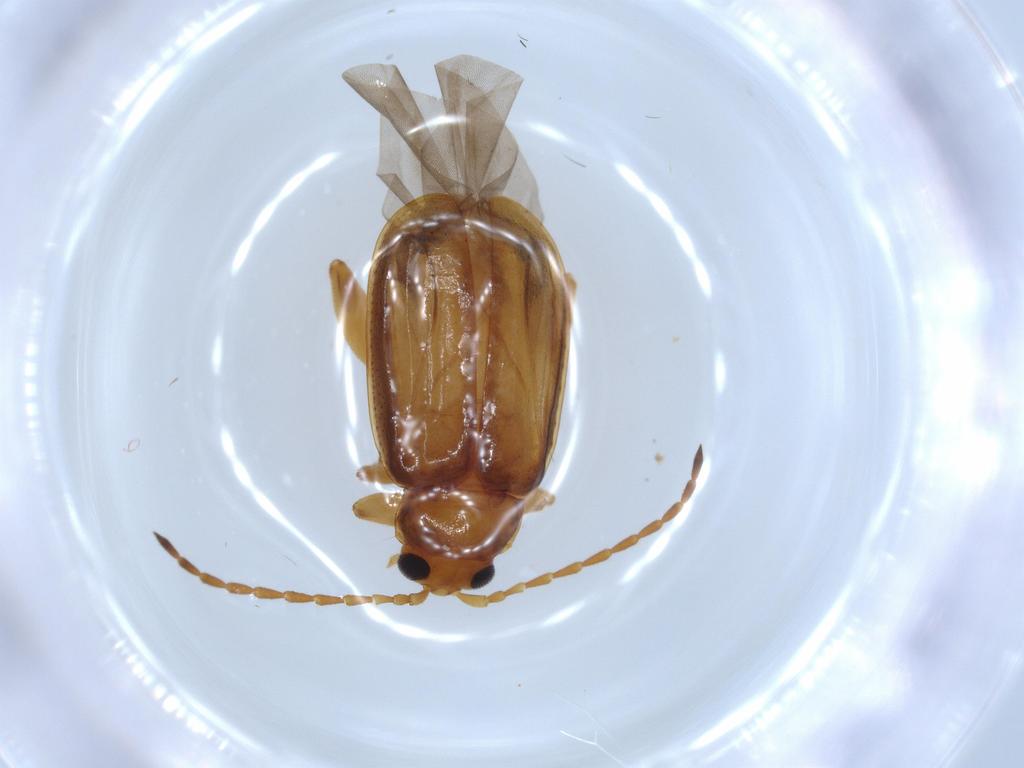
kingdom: Animalia
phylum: Arthropoda
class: Insecta
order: Coleoptera
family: Chrysomelidae
